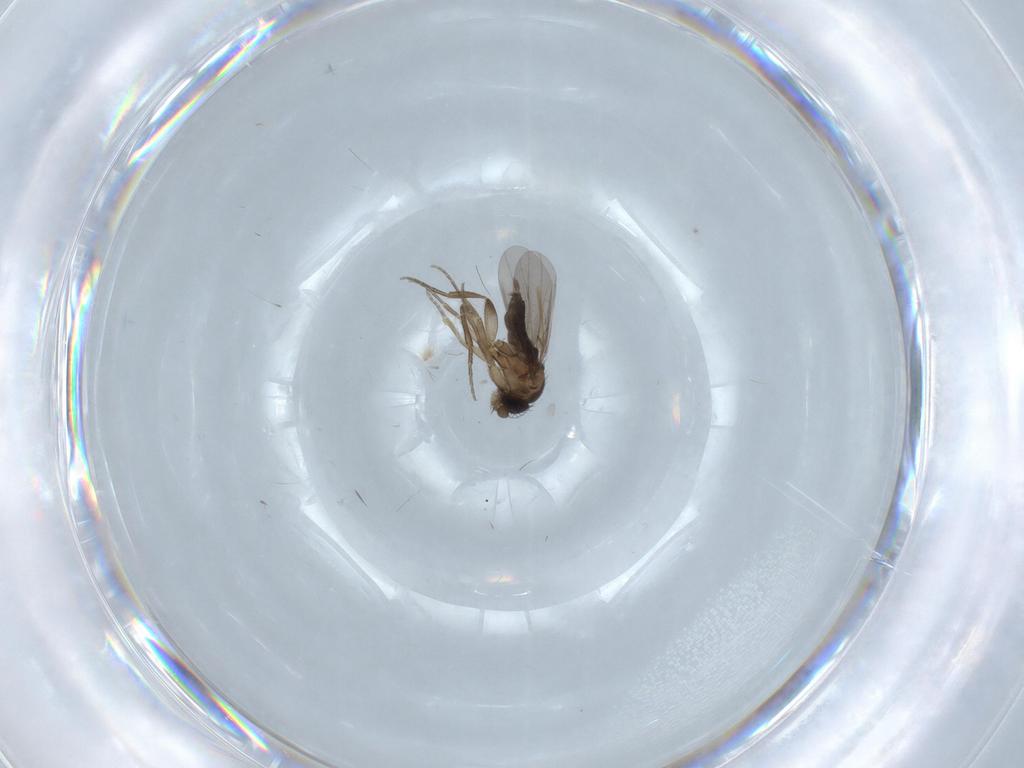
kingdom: Animalia
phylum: Arthropoda
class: Insecta
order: Diptera
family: Phoridae
